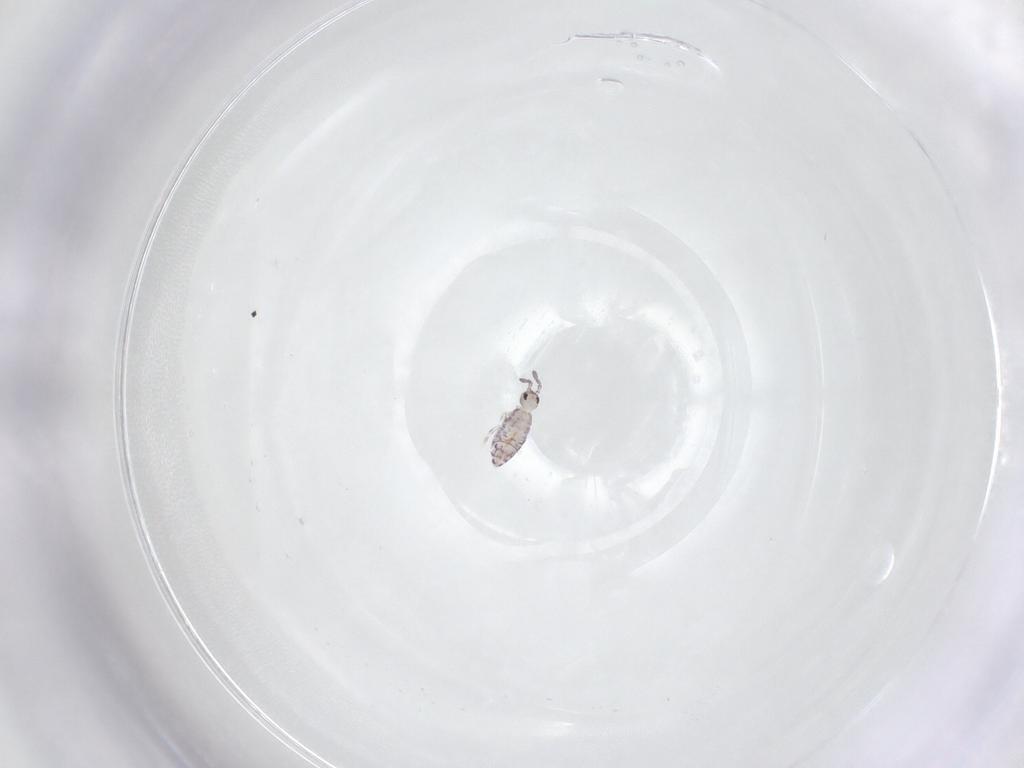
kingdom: Animalia
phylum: Arthropoda
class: Collembola
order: Entomobryomorpha
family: Entomobryidae
